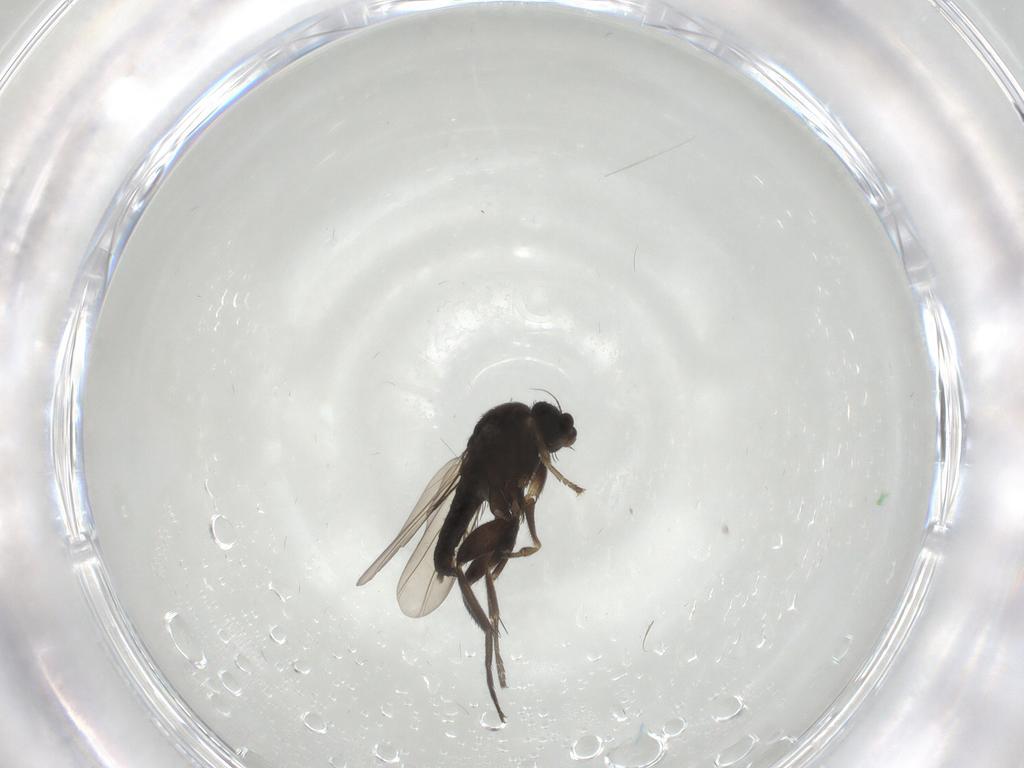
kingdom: Animalia
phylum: Arthropoda
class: Insecta
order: Diptera
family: Phoridae
